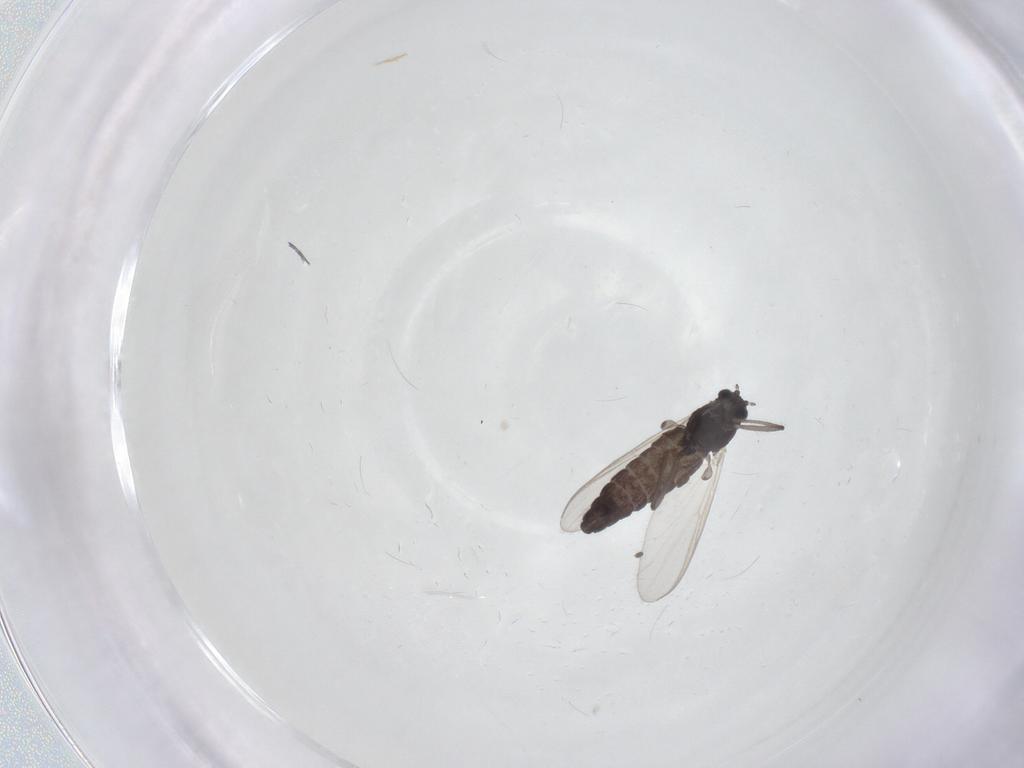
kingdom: Animalia
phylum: Arthropoda
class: Insecta
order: Diptera
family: Chironomidae
